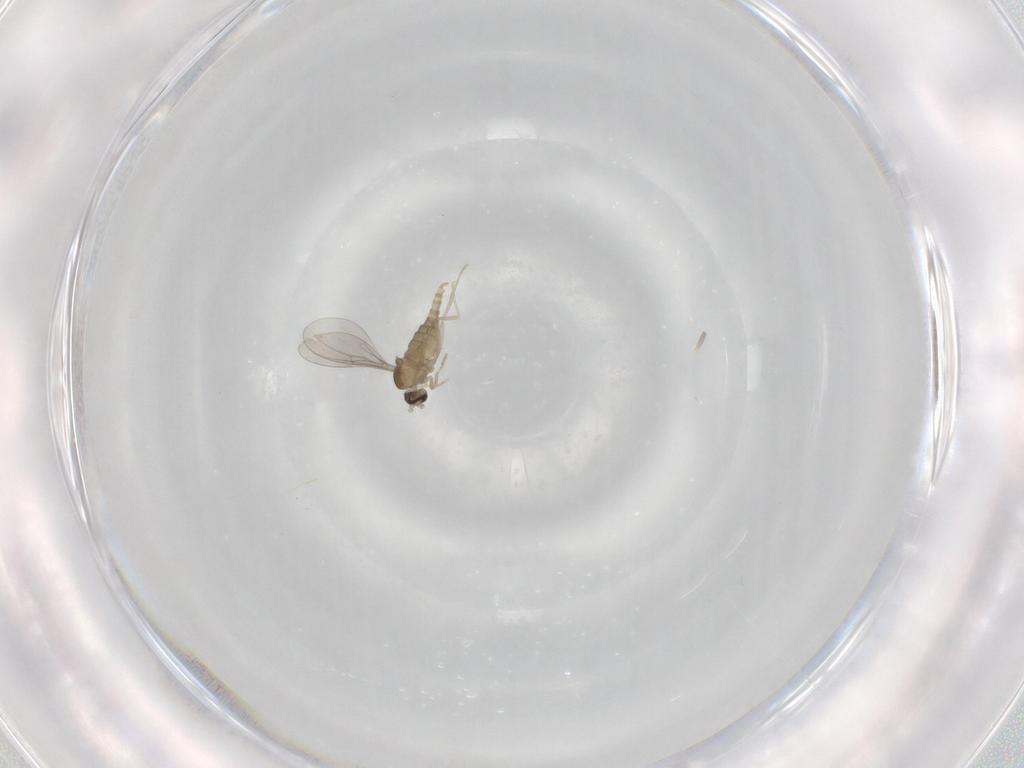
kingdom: Animalia
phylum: Arthropoda
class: Insecta
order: Diptera
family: Cecidomyiidae
